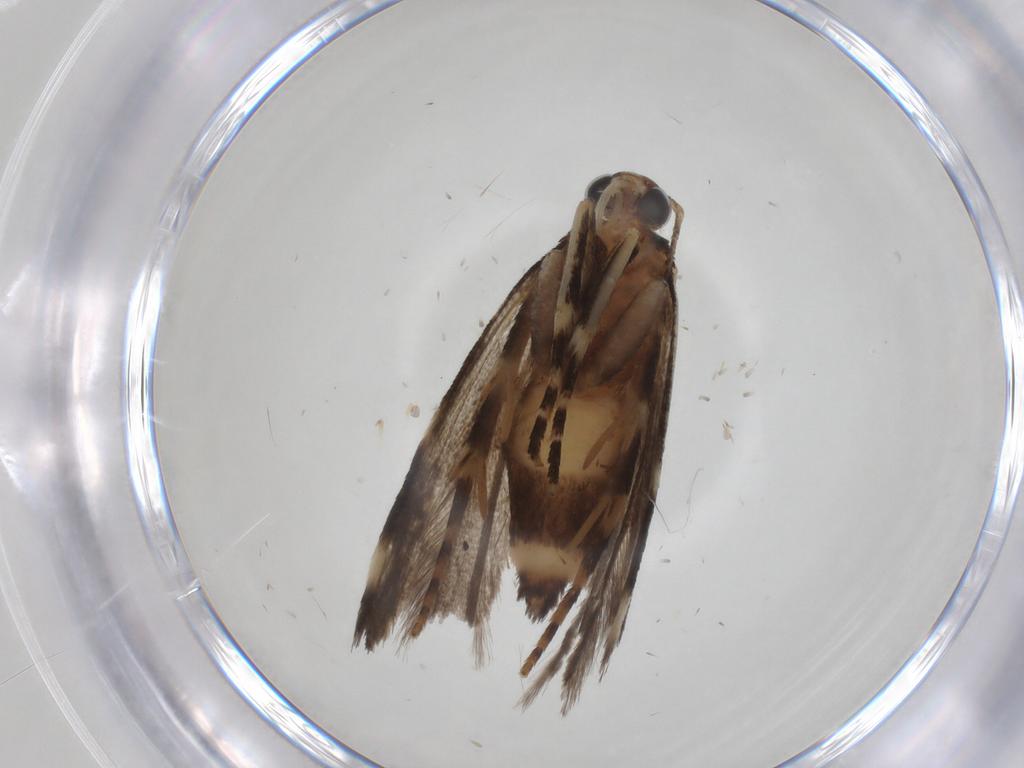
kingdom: Animalia
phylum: Arthropoda
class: Insecta
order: Lepidoptera
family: Gelechiidae
